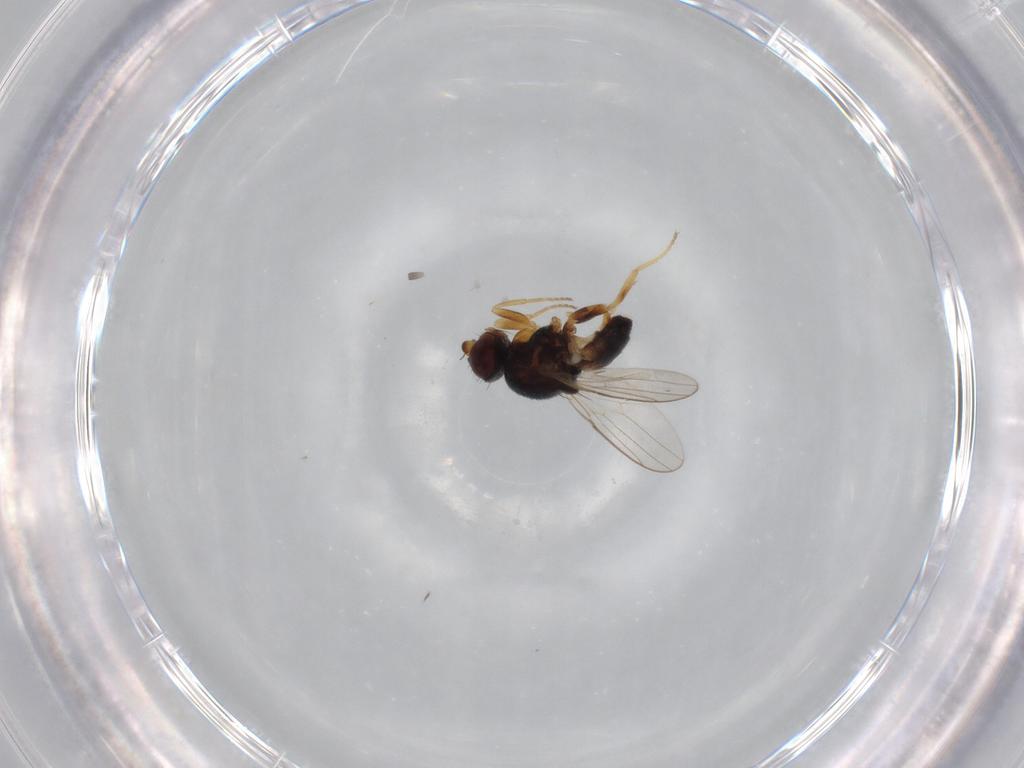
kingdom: Animalia
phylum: Arthropoda
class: Insecta
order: Diptera
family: Chloropidae
